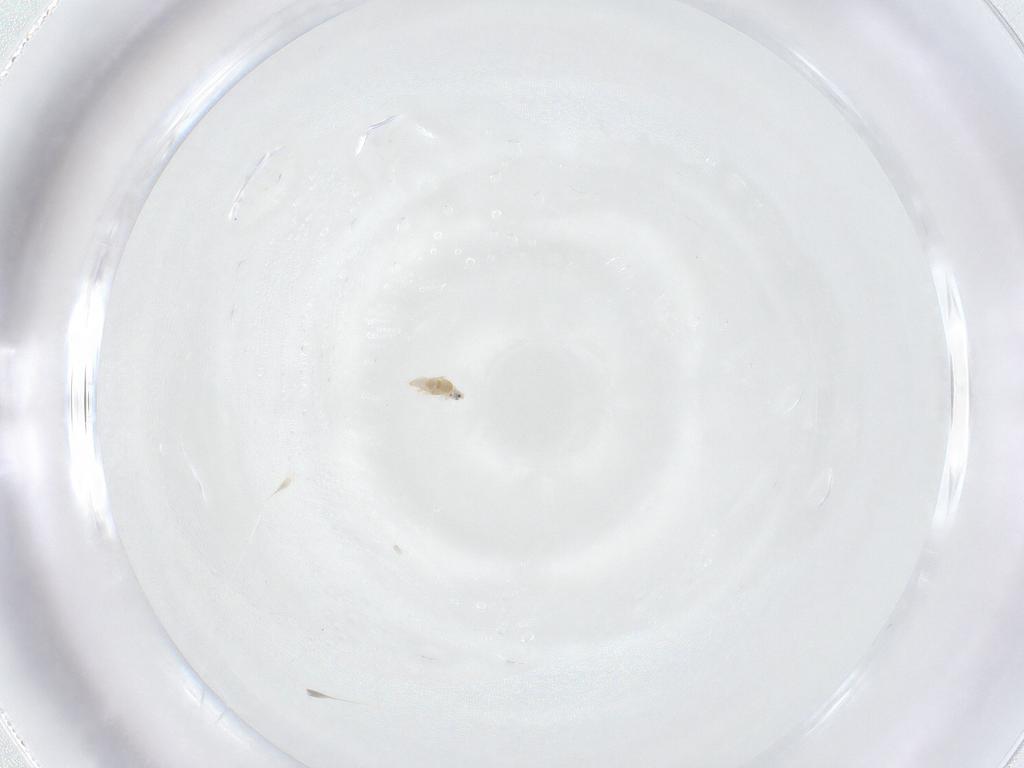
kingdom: Animalia
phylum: Arthropoda
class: Insecta
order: Hemiptera
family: Diaspididae
